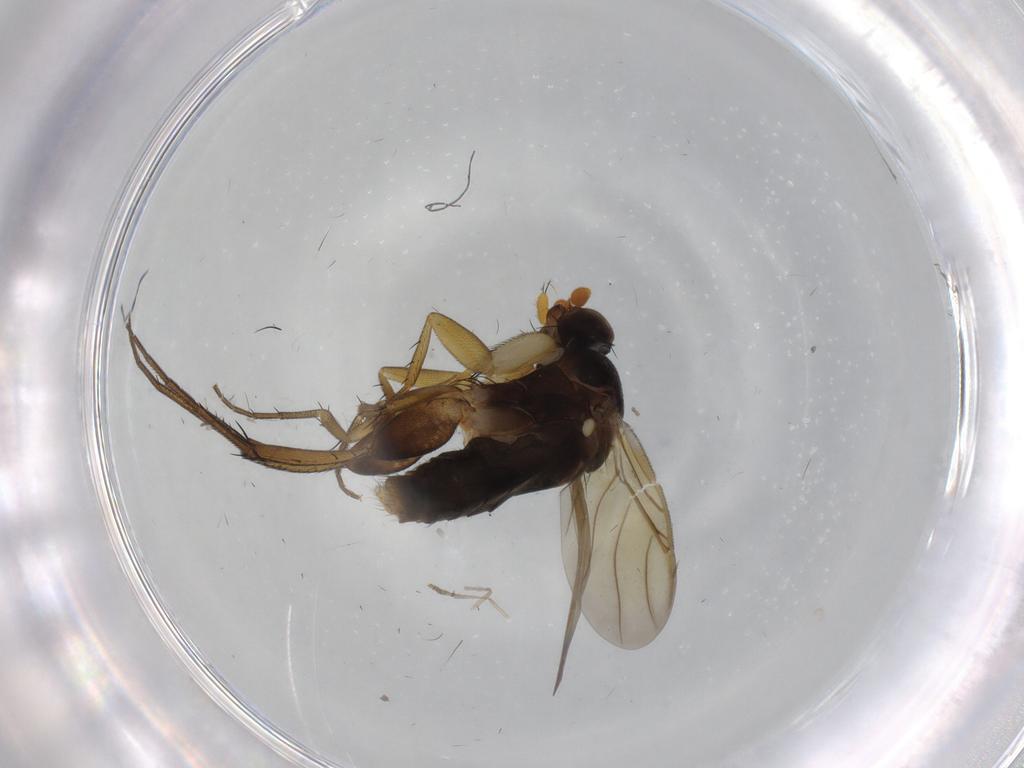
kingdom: Animalia
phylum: Arthropoda
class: Insecta
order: Diptera
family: Phoridae
